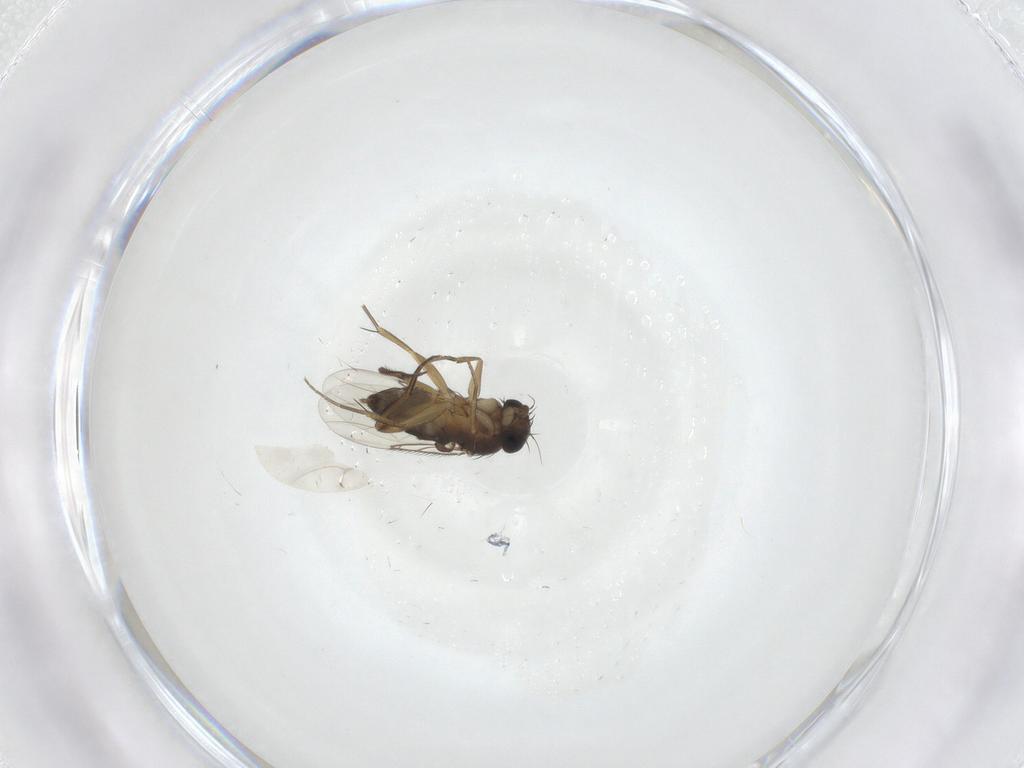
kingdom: Animalia
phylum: Arthropoda
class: Insecta
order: Diptera
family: Phoridae
